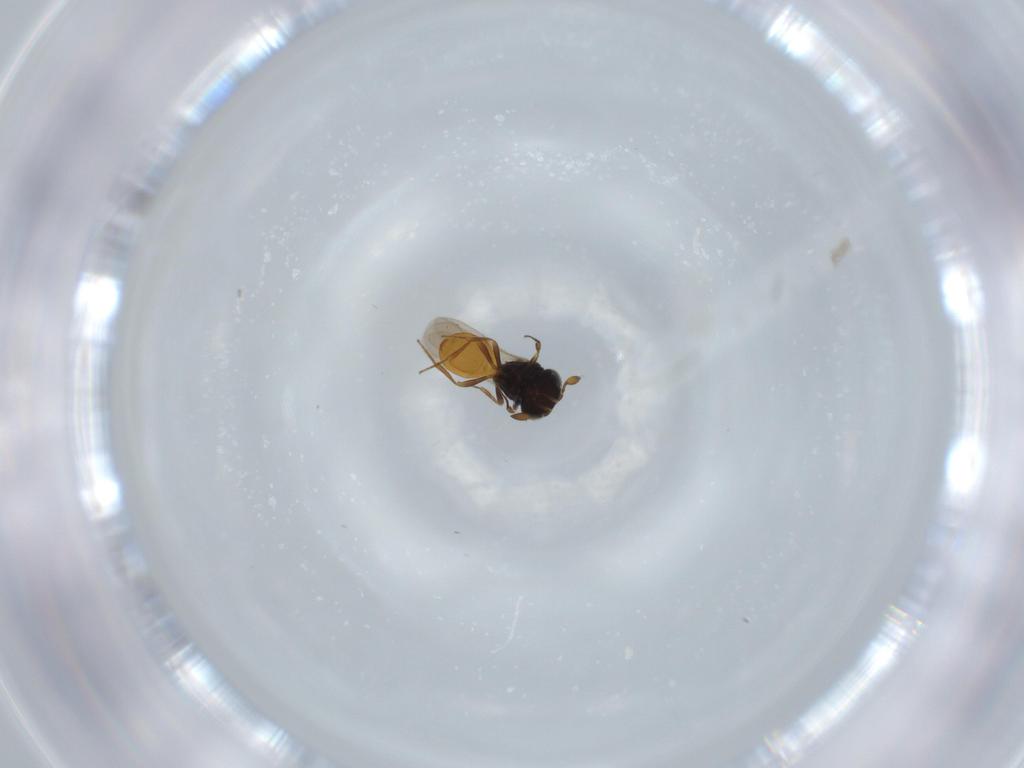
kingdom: Animalia
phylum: Arthropoda
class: Insecta
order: Hymenoptera
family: Scelionidae
